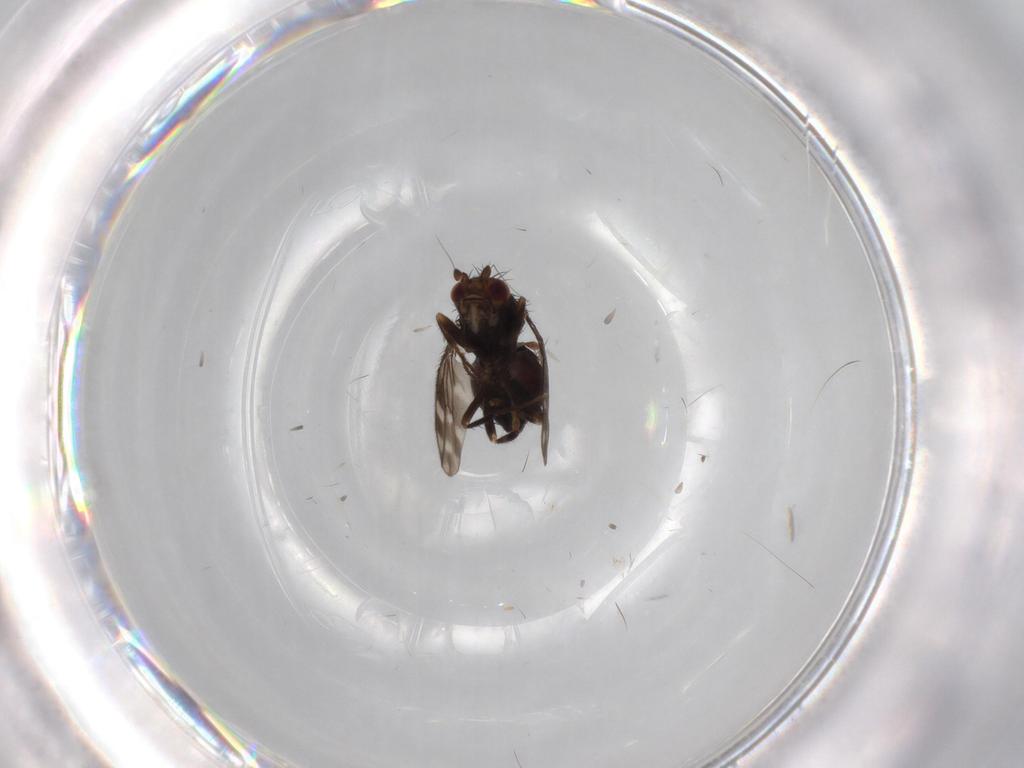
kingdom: Animalia
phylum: Arthropoda
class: Insecta
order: Diptera
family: Sphaeroceridae
